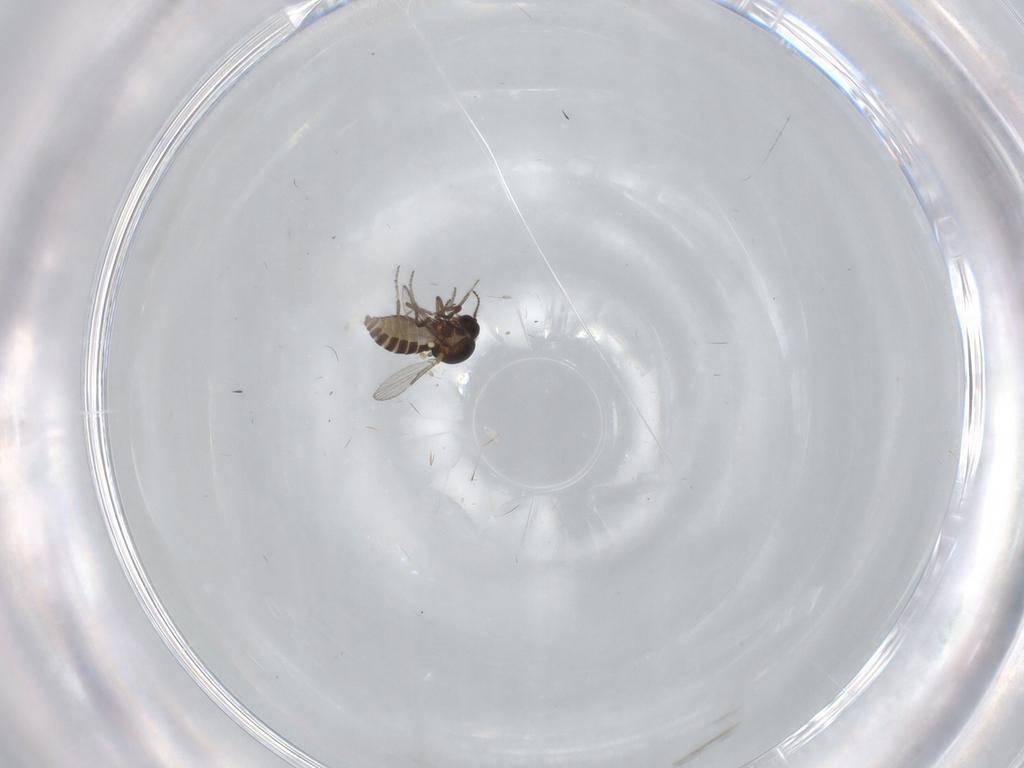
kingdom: Animalia
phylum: Arthropoda
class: Insecta
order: Diptera
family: Ceratopogonidae
